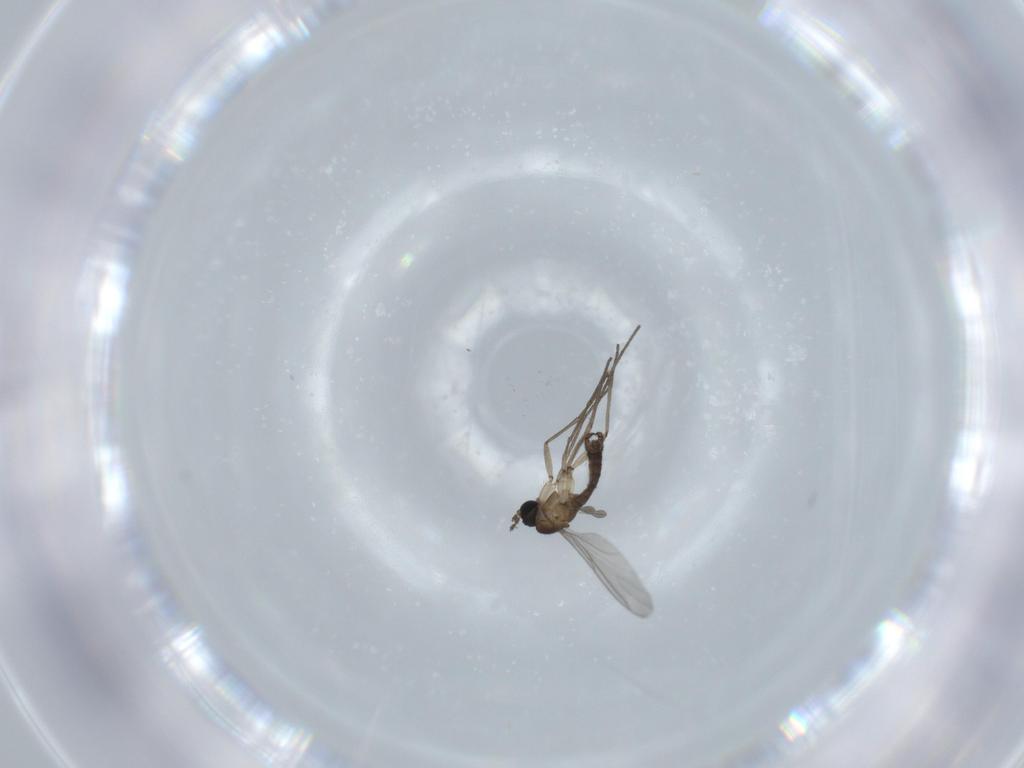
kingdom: Animalia
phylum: Arthropoda
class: Insecta
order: Diptera
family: Sciaridae
